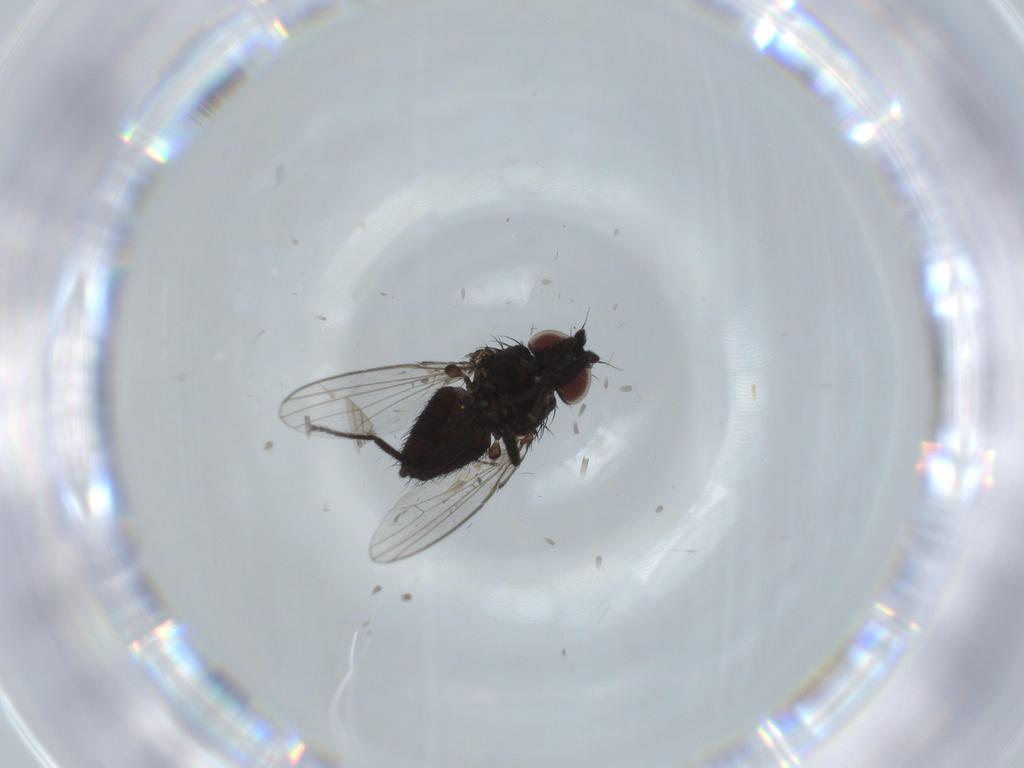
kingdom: Animalia
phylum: Arthropoda
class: Insecta
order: Diptera
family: Milichiidae
